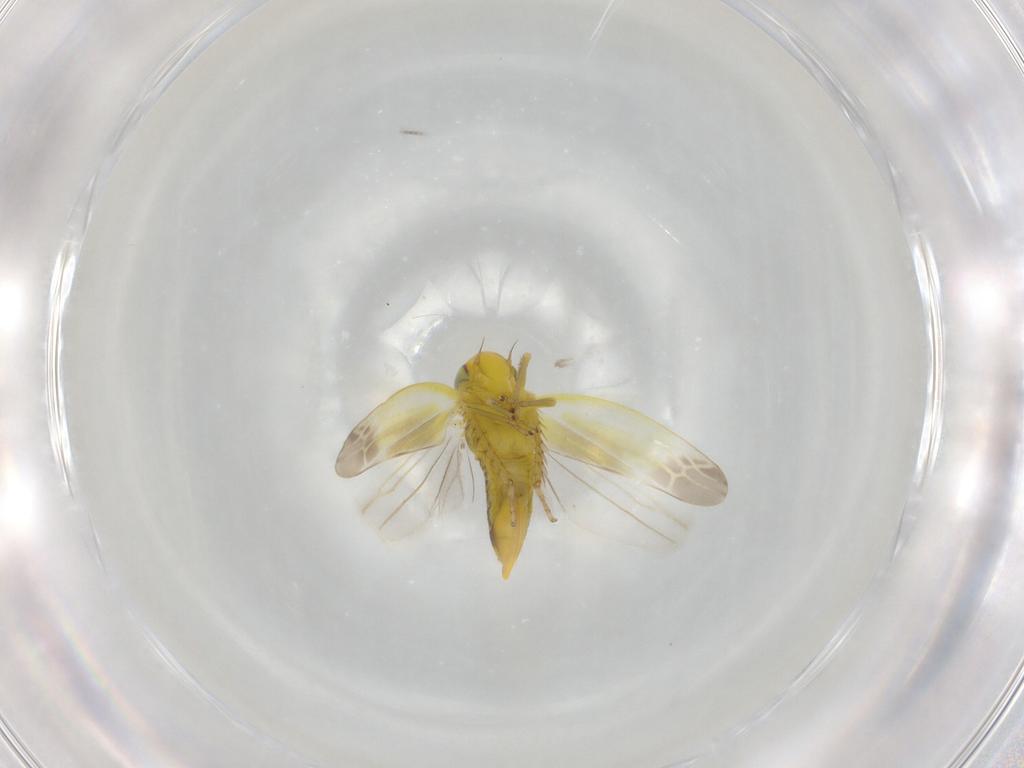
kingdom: Animalia
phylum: Arthropoda
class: Insecta
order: Hemiptera
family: Cicadellidae
